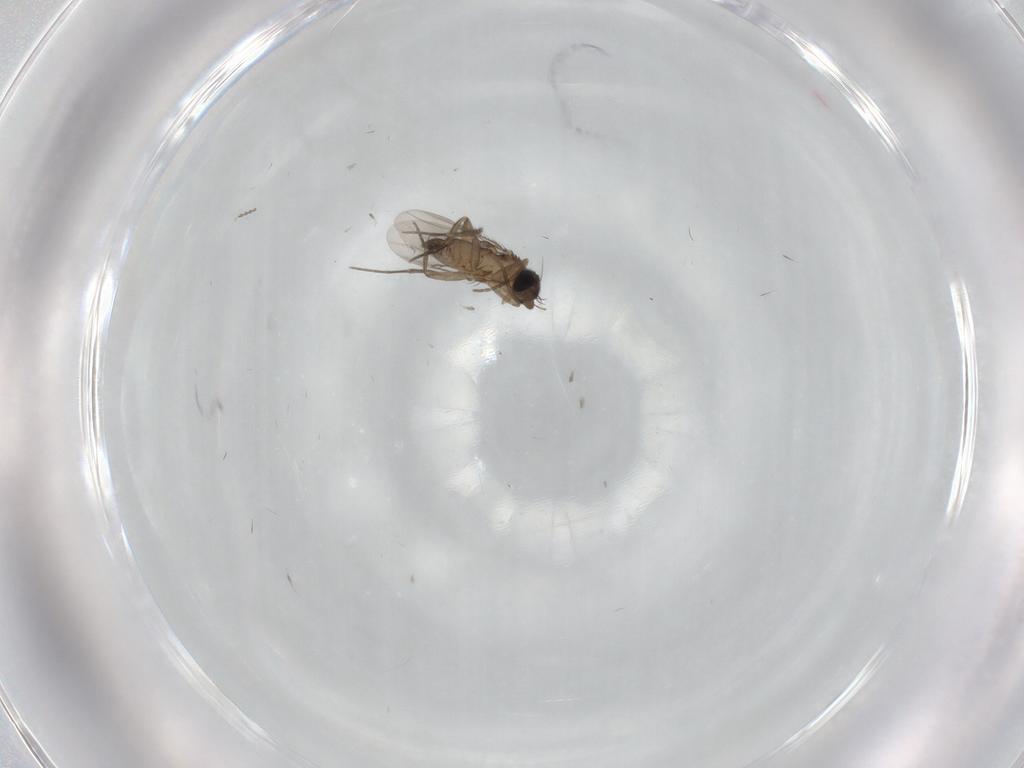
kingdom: Animalia
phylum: Arthropoda
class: Insecta
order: Diptera
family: Phoridae
